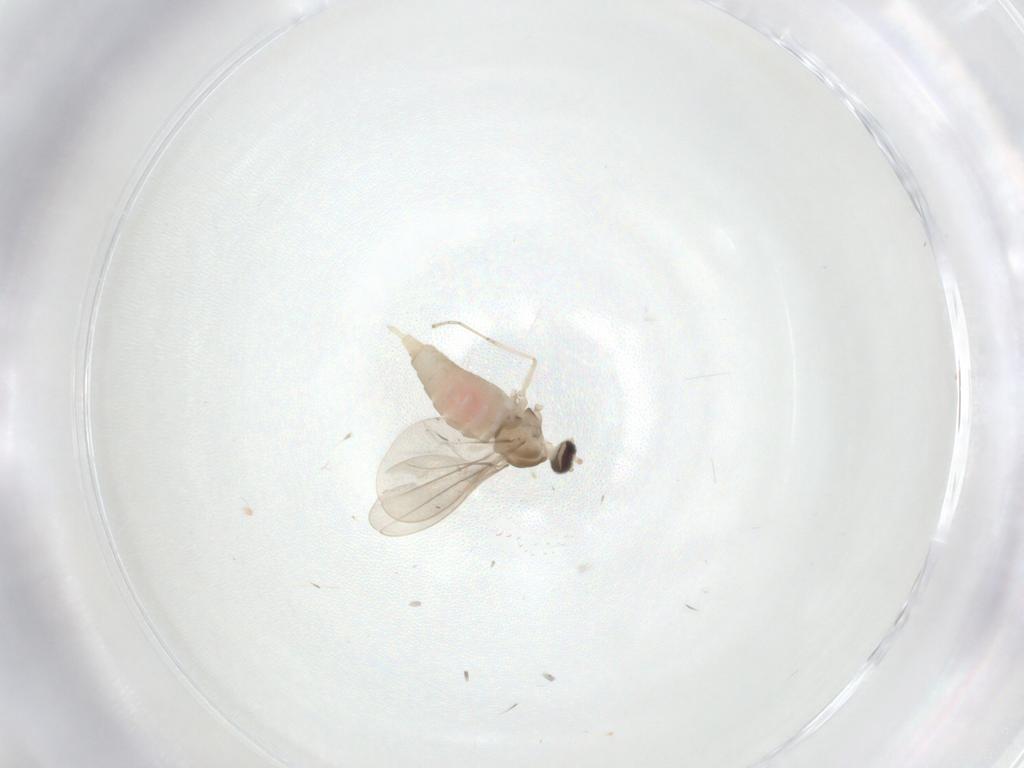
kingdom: Animalia
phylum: Arthropoda
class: Insecta
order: Diptera
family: Cecidomyiidae
